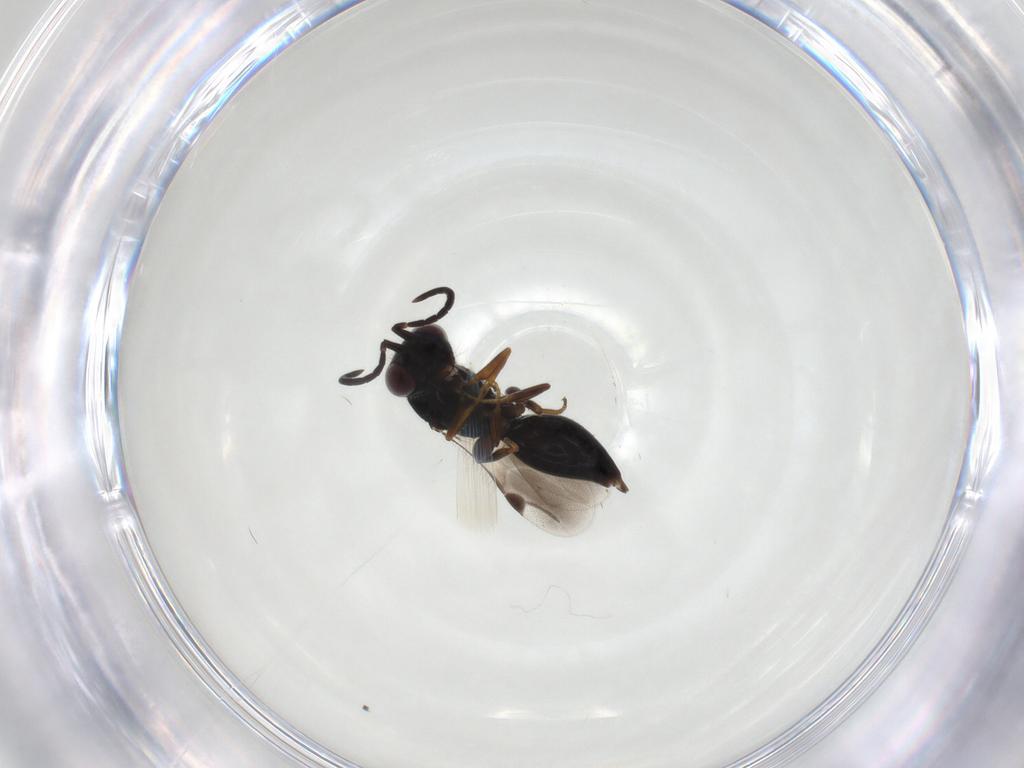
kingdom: Animalia
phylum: Arthropoda
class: Insecta
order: Hymenoptera
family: Megaspilidae
